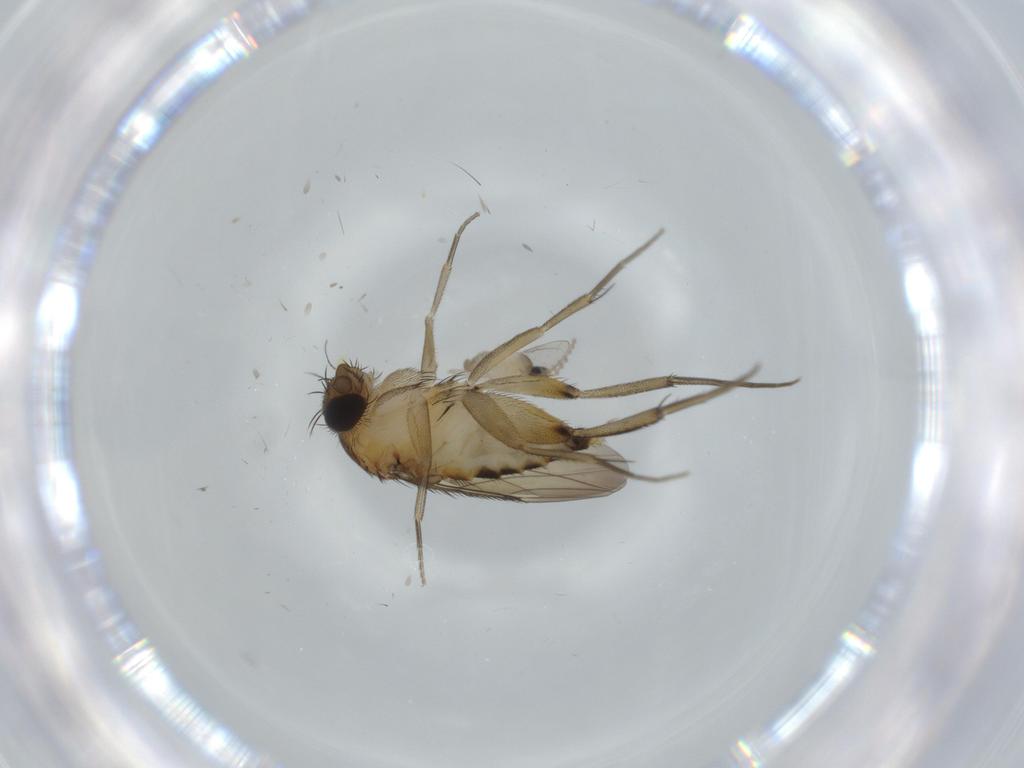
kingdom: Animalia
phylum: Arthropoda
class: Insecta
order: Diptera
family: Phoridae
